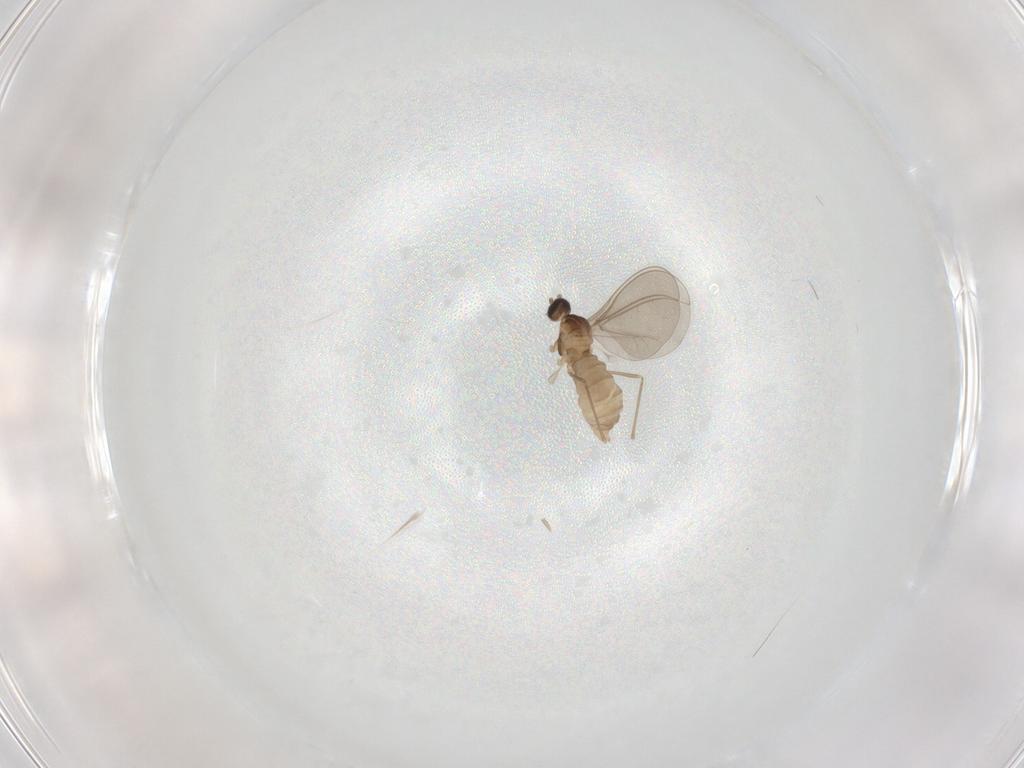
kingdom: Animalia
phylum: Arthropoda
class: Insecta
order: Diptera
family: Cecidomyiidae
